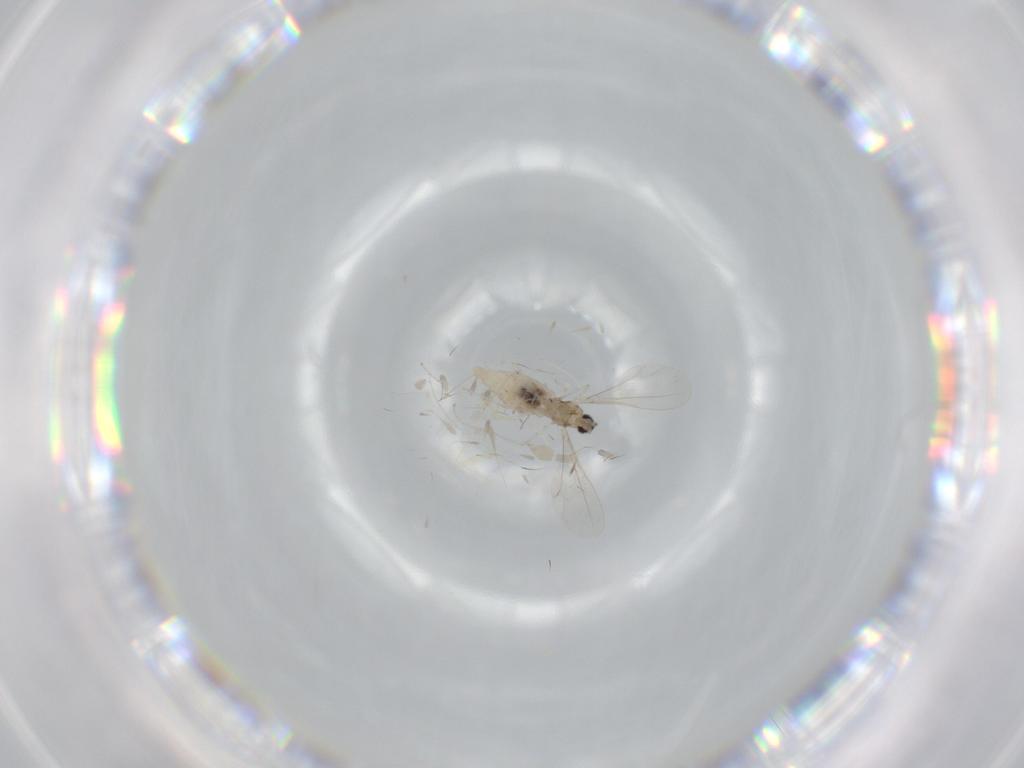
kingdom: Animalia
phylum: Arthropoda
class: Insecta
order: Diptera
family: Cecidomyiidae
